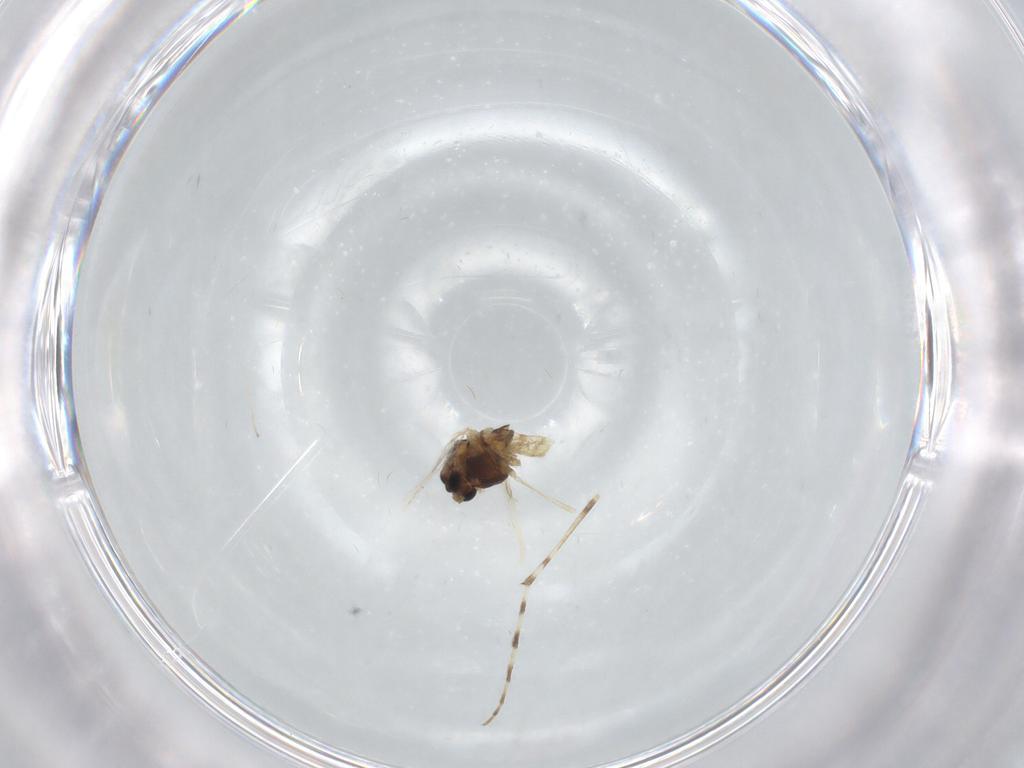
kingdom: Animalia
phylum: Arthropoda
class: Insecta
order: Diptera
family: Chironomidae
